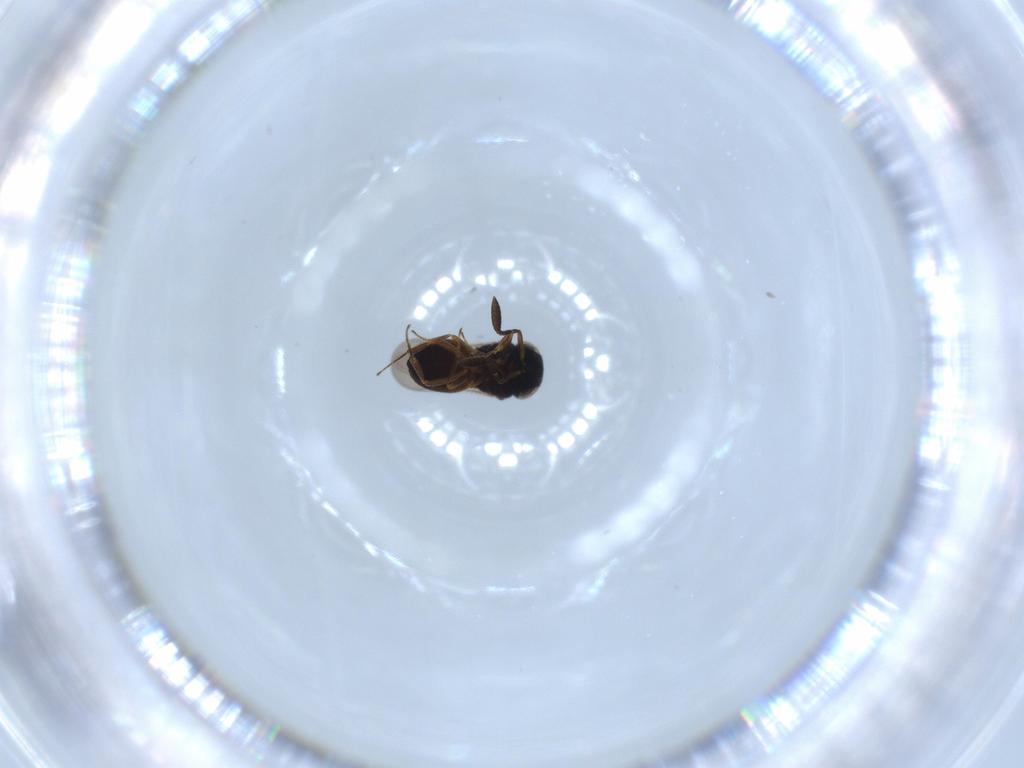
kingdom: Animalia
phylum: Arthropoda
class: Insecta
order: Hymenoptera
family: Scelionidae
